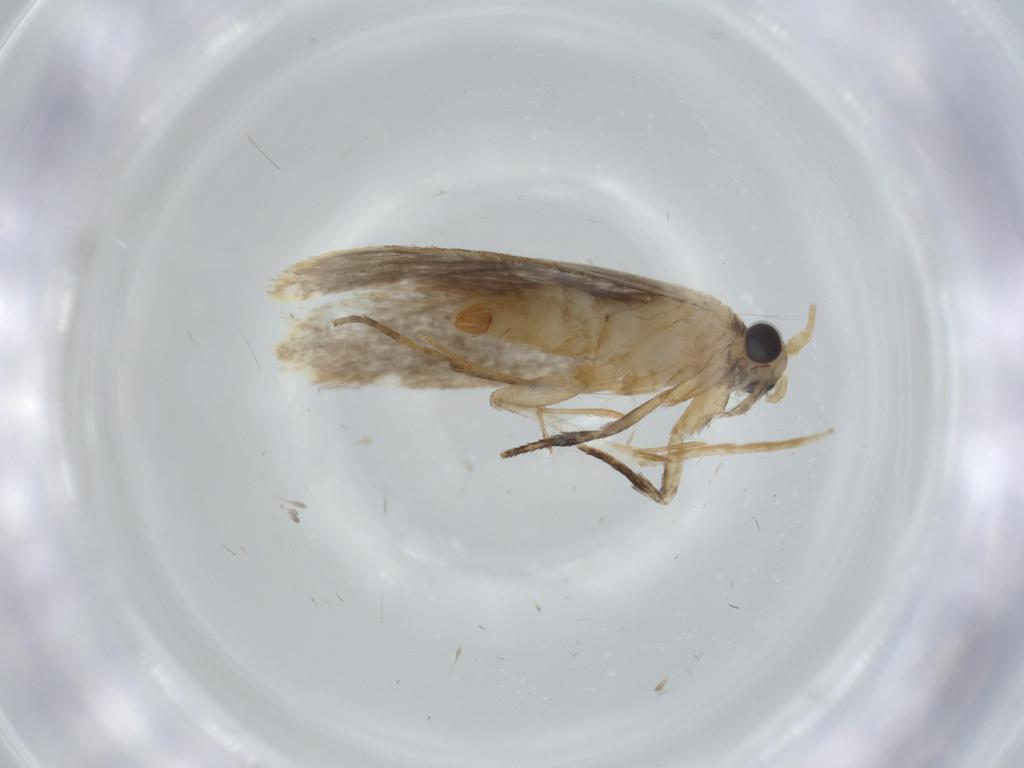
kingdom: Animalia
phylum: Arthropoda
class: Insecta
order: Lepidoptera
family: Tineidae
